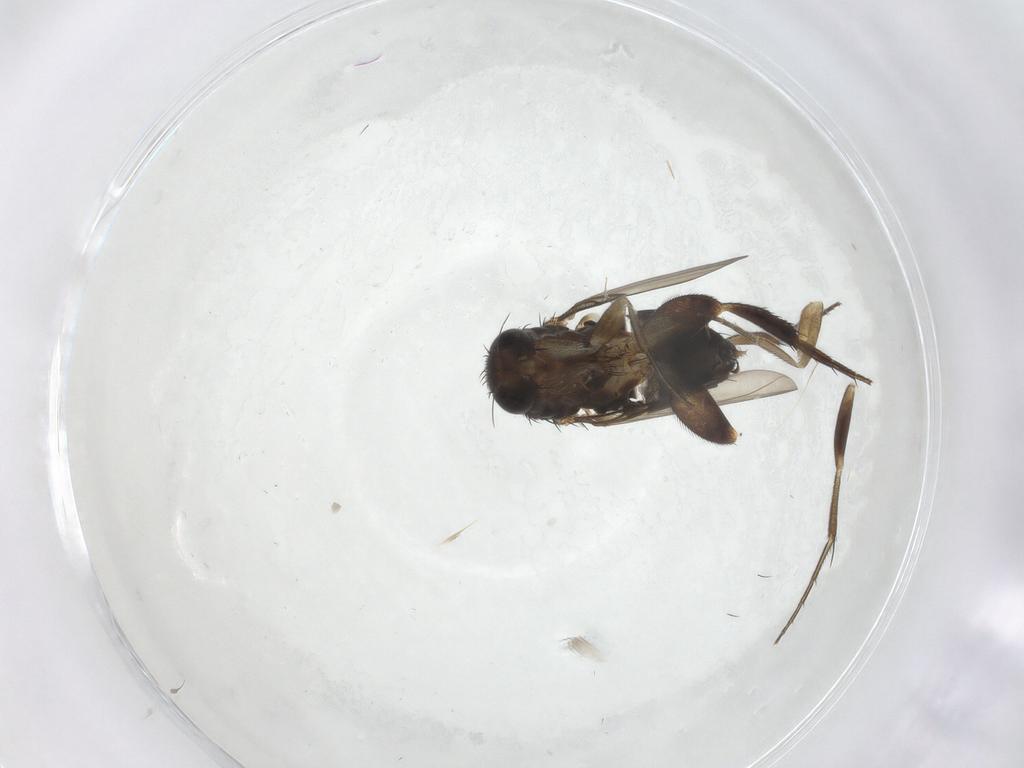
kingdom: Animalia
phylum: Arthropoda
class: Insecta
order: Diptera
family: Phoridae
